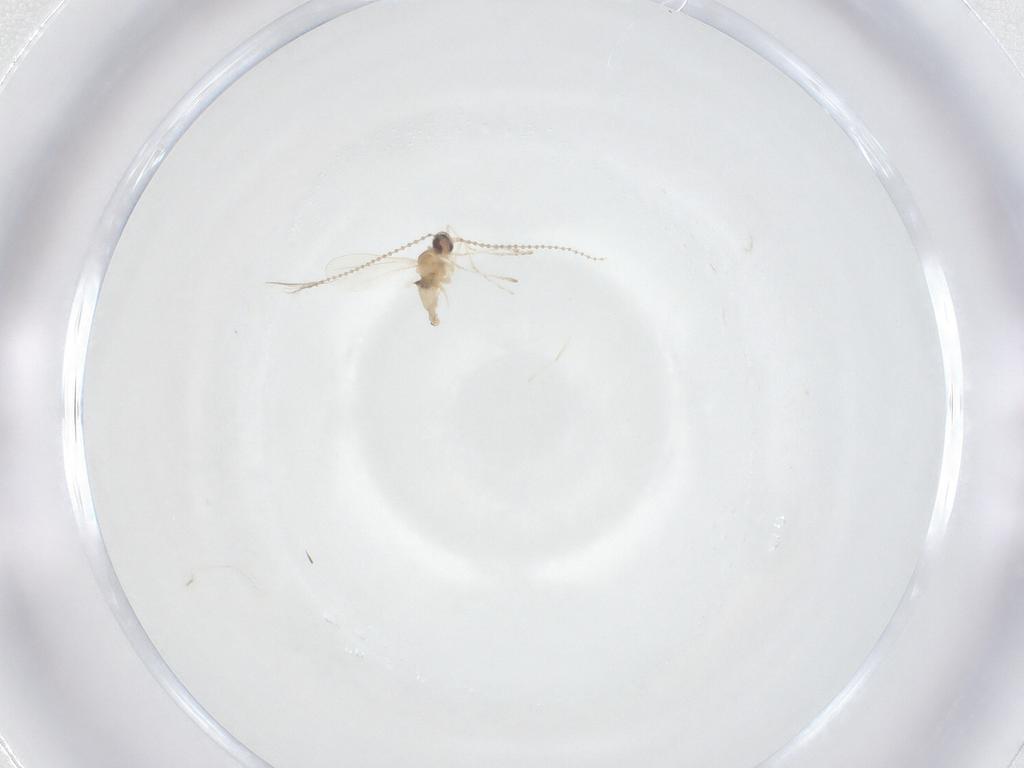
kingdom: Animalia
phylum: Arthropoda
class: Insecta
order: Diptera
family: Cecidomyiidae
